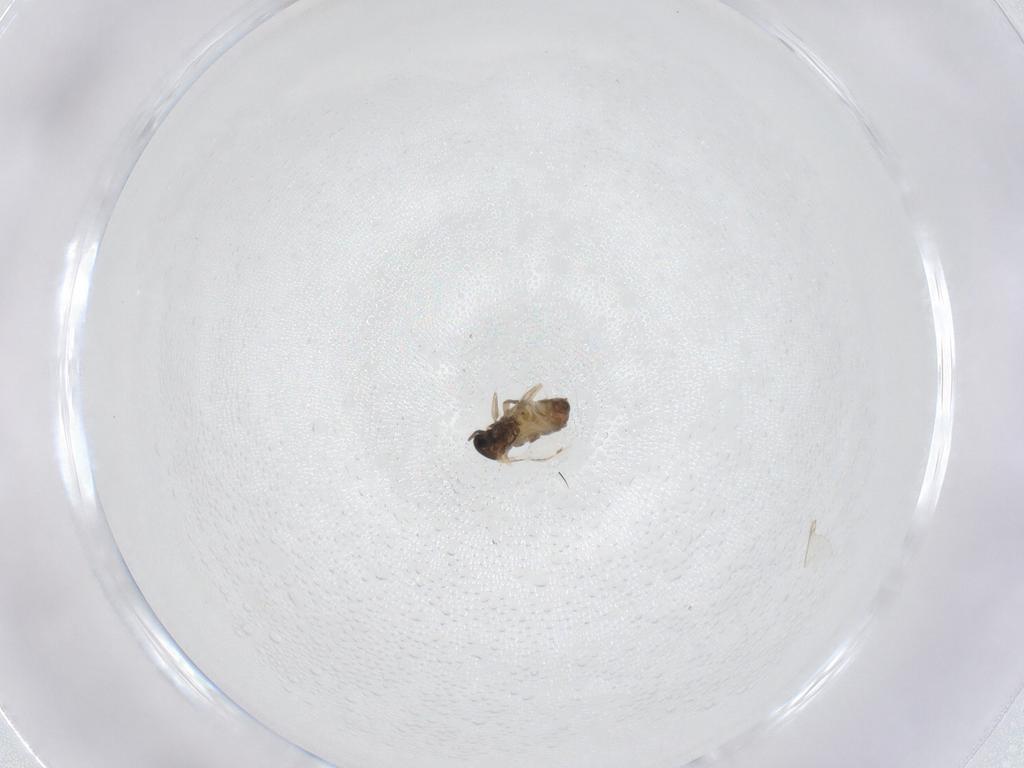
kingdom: Animalia
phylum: Arthropoda
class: Insecta
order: Diptera
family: Cecidomyiidae
